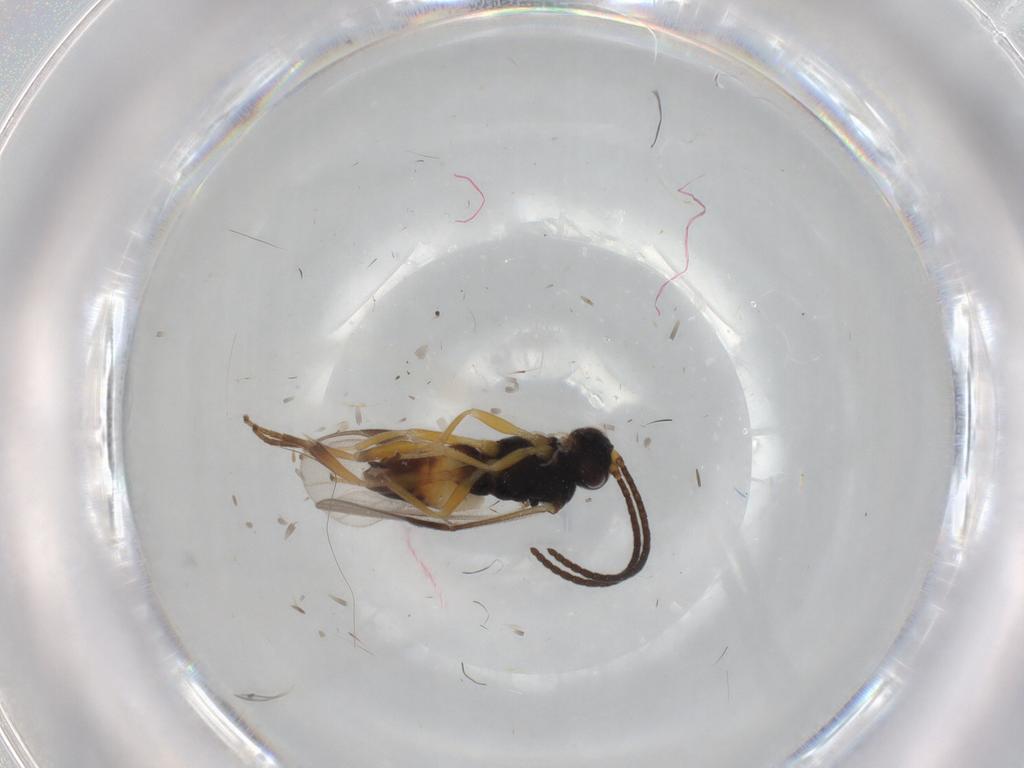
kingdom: Animalia
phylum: Arthropoda
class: Insecta
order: Hymenoptera
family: Braconidae
